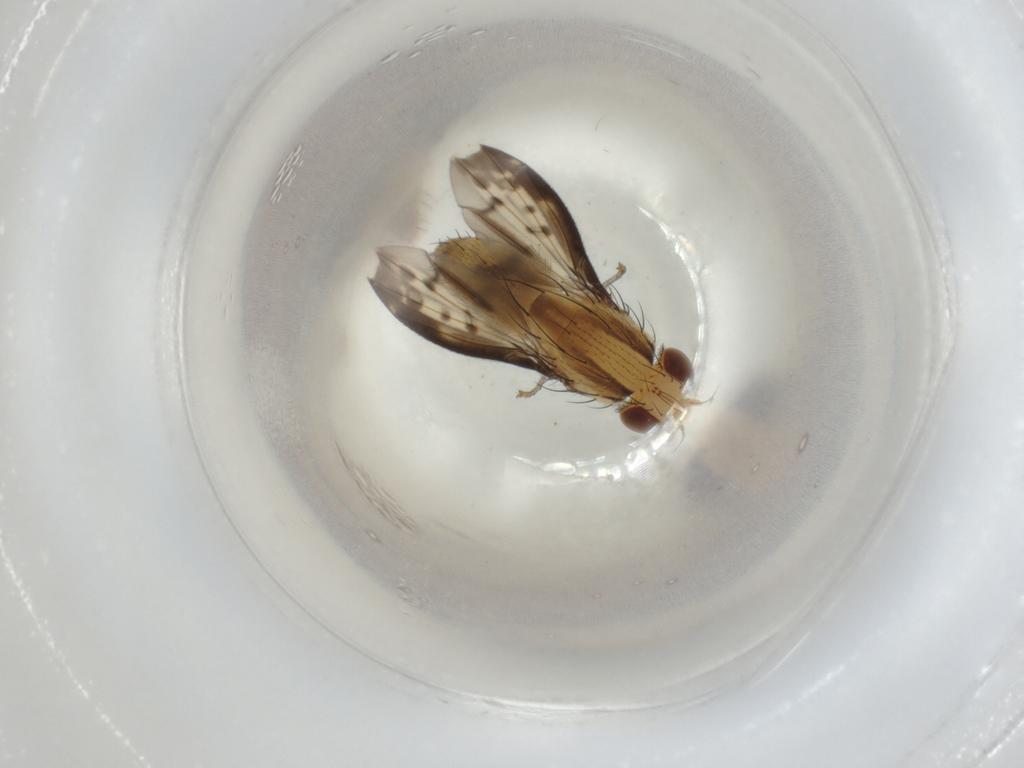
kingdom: Animalia
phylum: Arthropoda
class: Insecta
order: Diptera
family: Lauxaniidae
